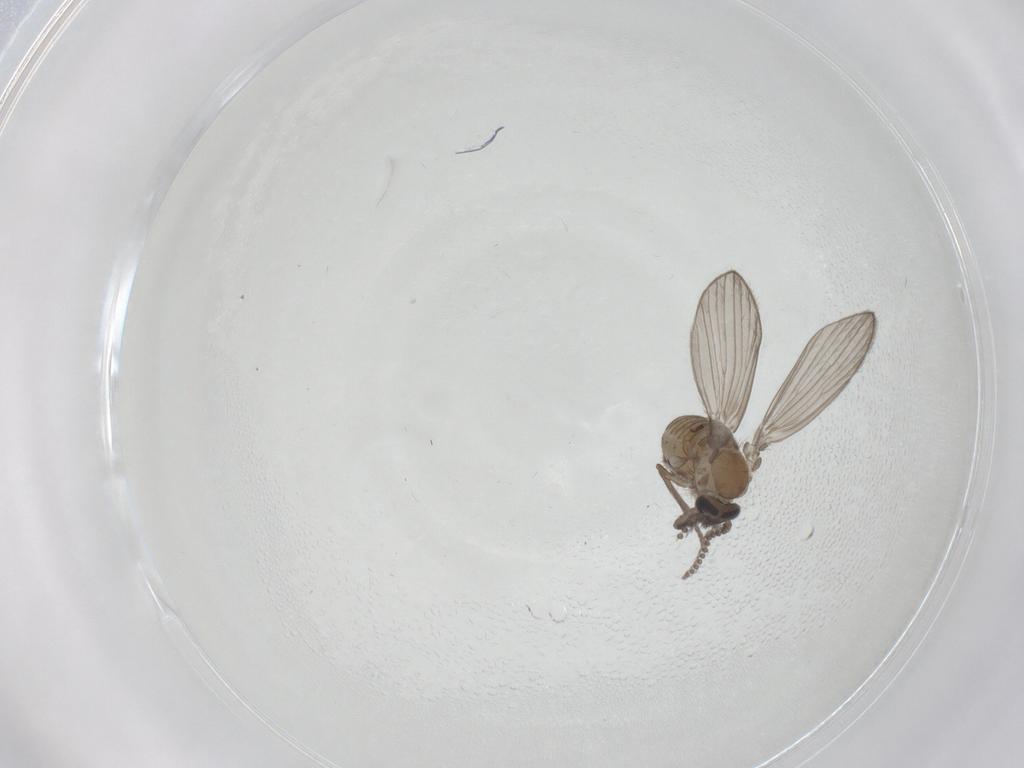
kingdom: Animalia
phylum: Arthropoda
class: Insecta
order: Diptera
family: Psychodidae
